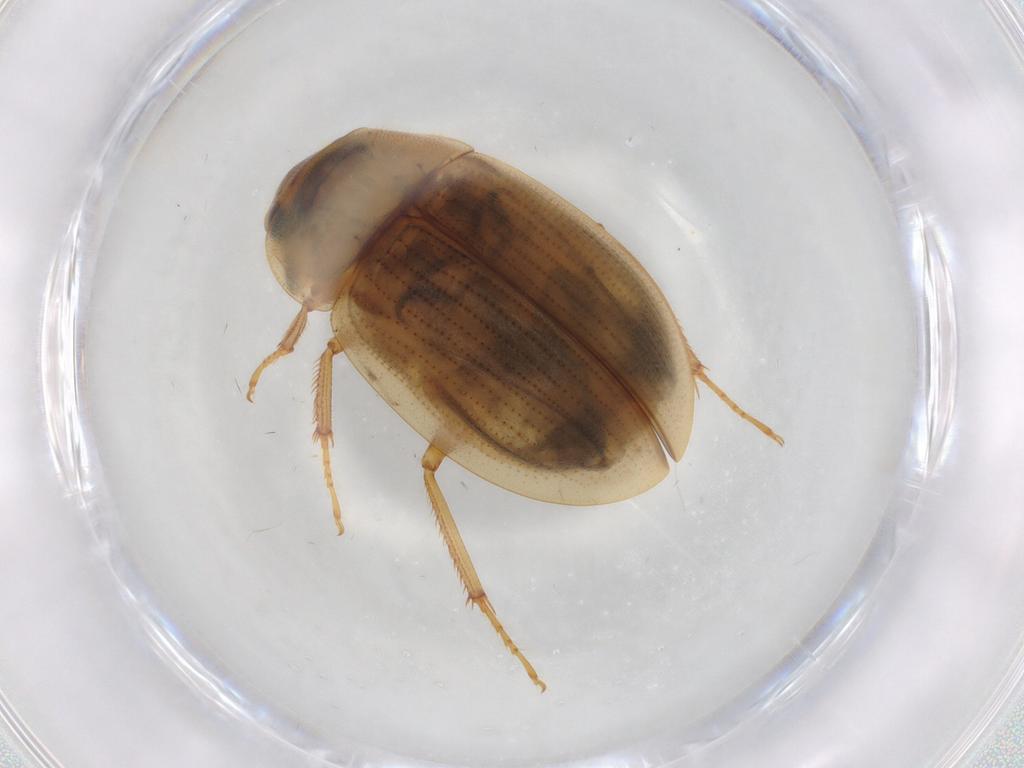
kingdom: Animalia
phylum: Arthropoda
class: Insecta
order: Coleoptera
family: Hydrophilidae
